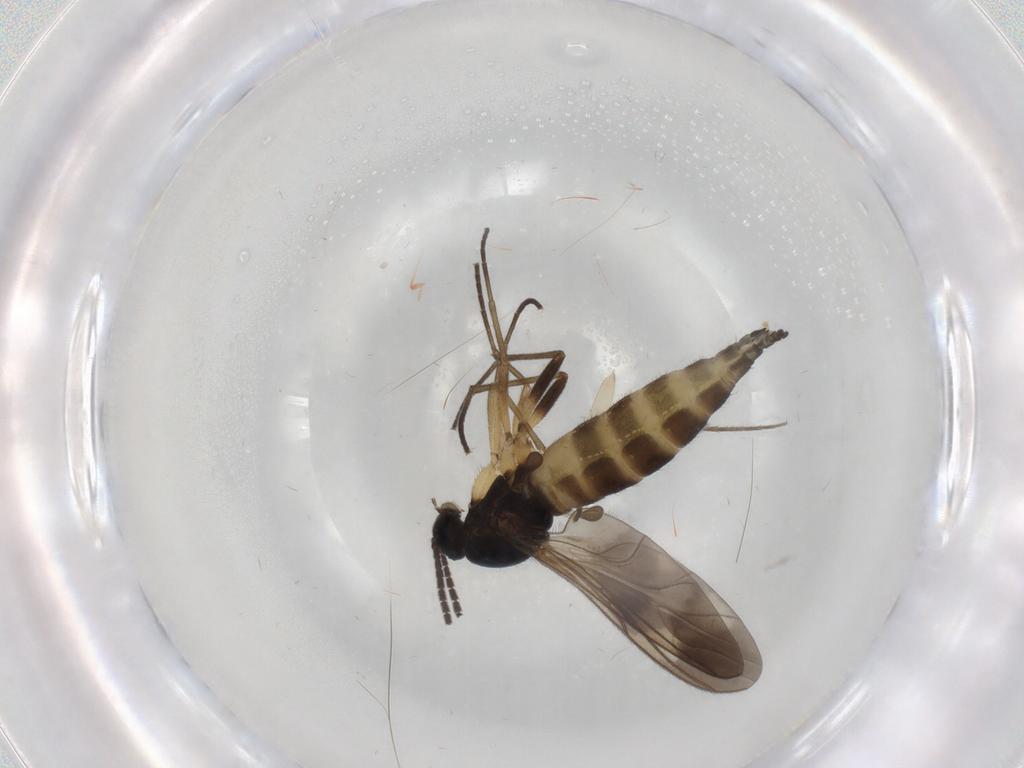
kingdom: Animalia
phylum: Arthropoda
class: Insecta
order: Diptera
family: Sciaridae
